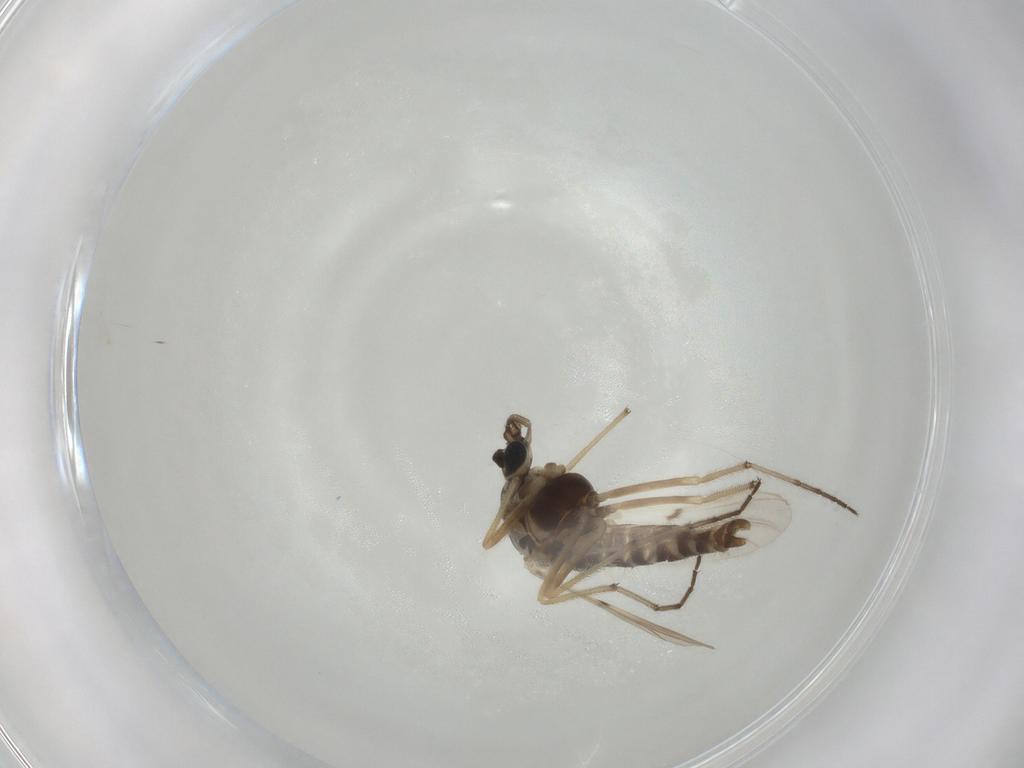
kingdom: Animalia
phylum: Arthropoda
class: Insecta
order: Diptera
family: Chironomidae
